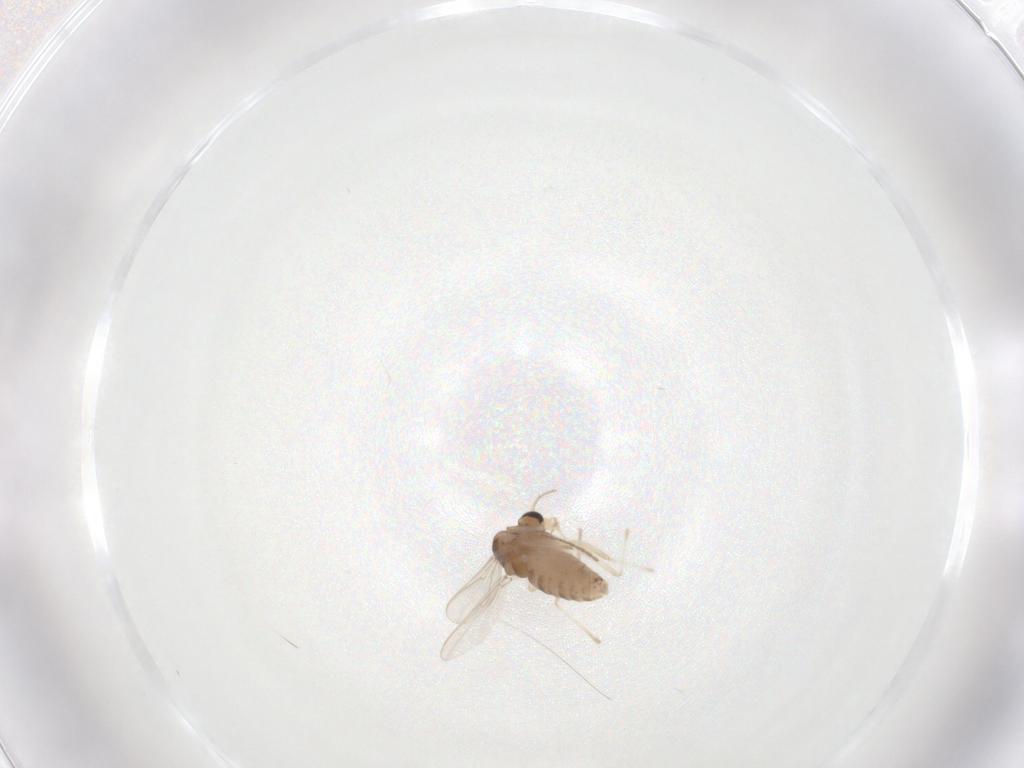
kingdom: Animalia
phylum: Arthropoda
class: Insecta
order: Diptera
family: Chironomidae
